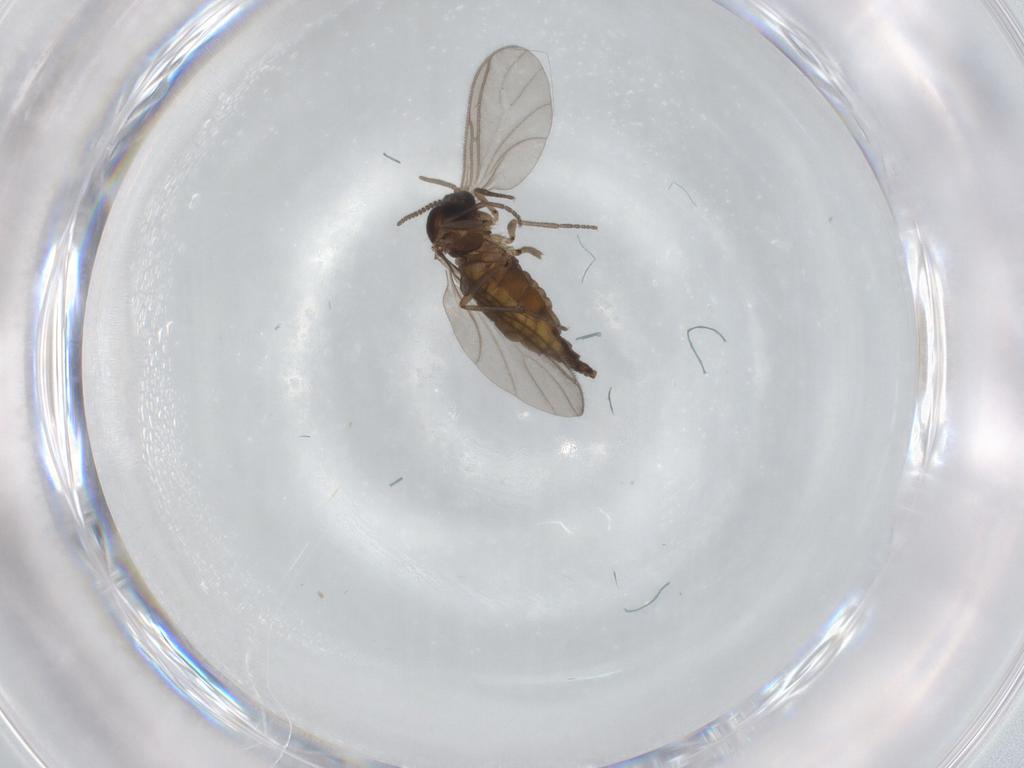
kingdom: Animalia
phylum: Arthropoda
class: Insecta
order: Diptera
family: Sciaridae
